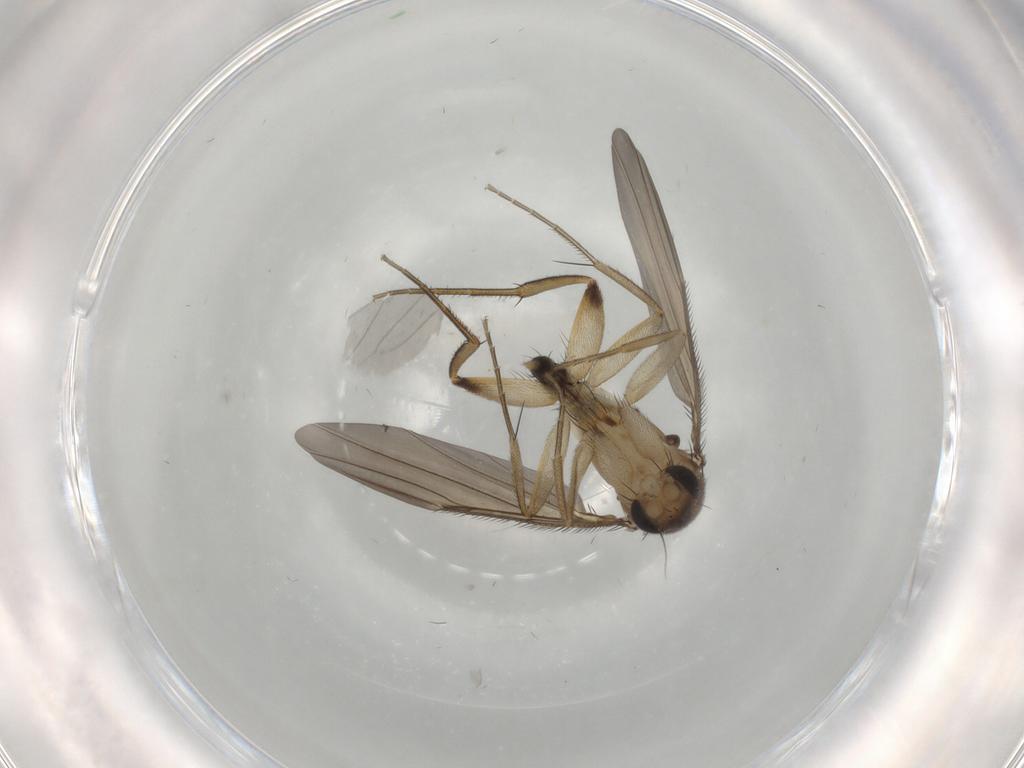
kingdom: Animalia
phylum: Arthropoda
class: Insecta
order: Diptera
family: Phoridae
